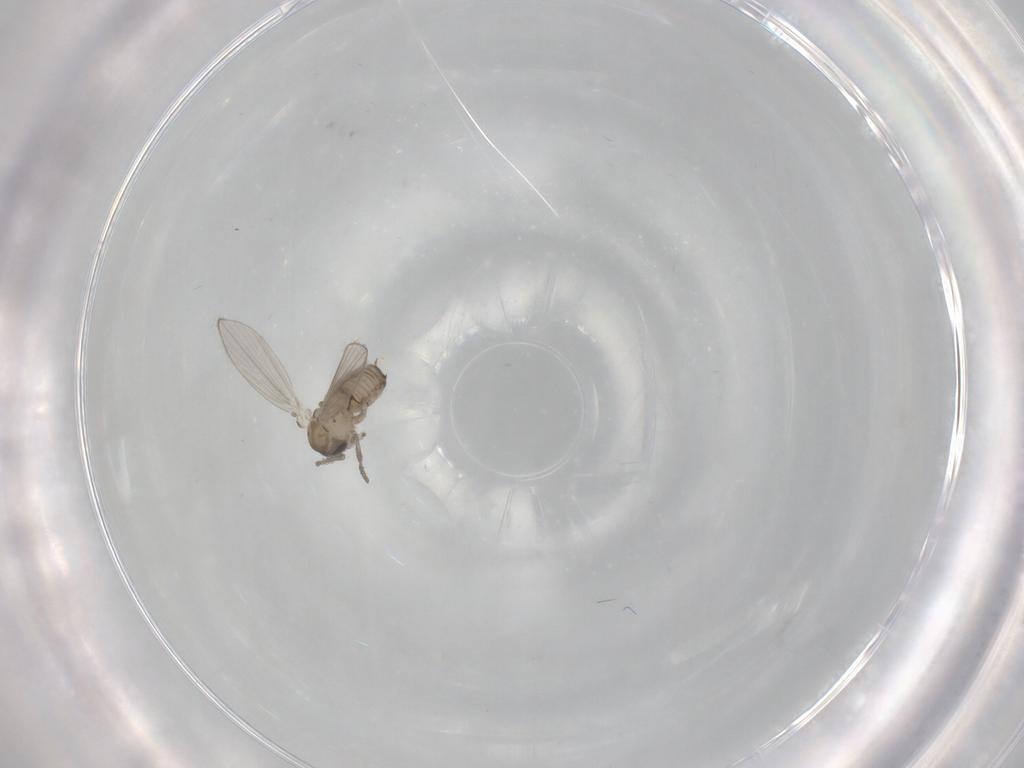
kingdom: Animalia
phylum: Arthropoda
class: Insecta
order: Diptera
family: Psychodidae
